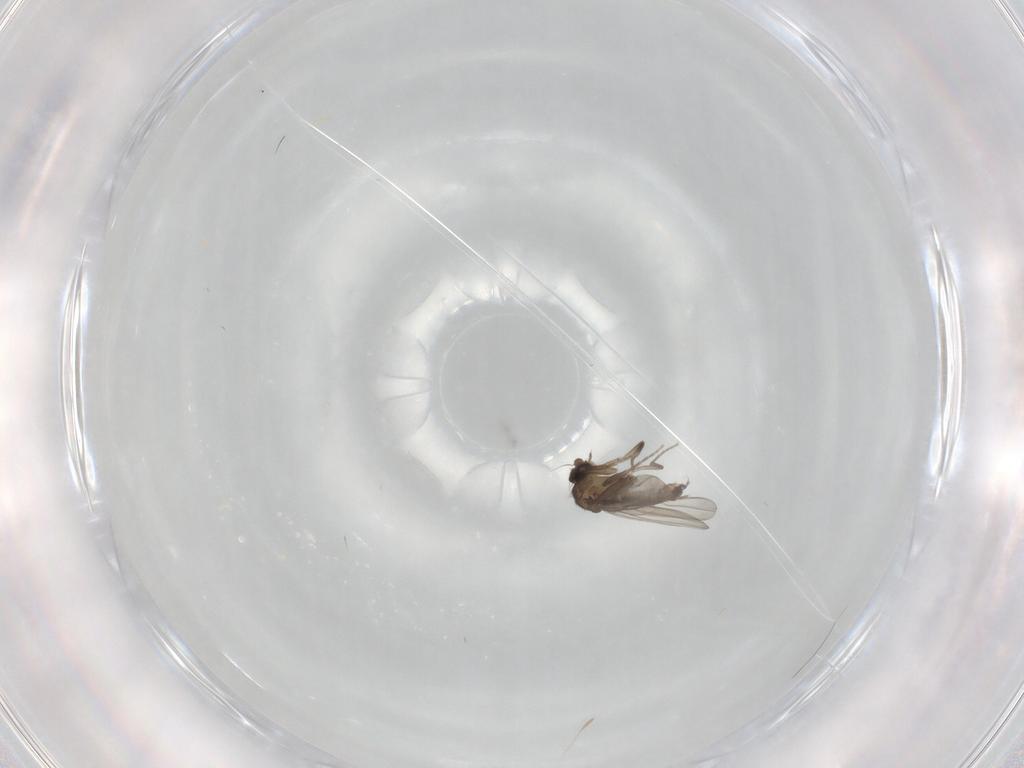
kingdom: Animalia
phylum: Arthropoda
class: Insecta
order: Diptera
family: Phoridae
